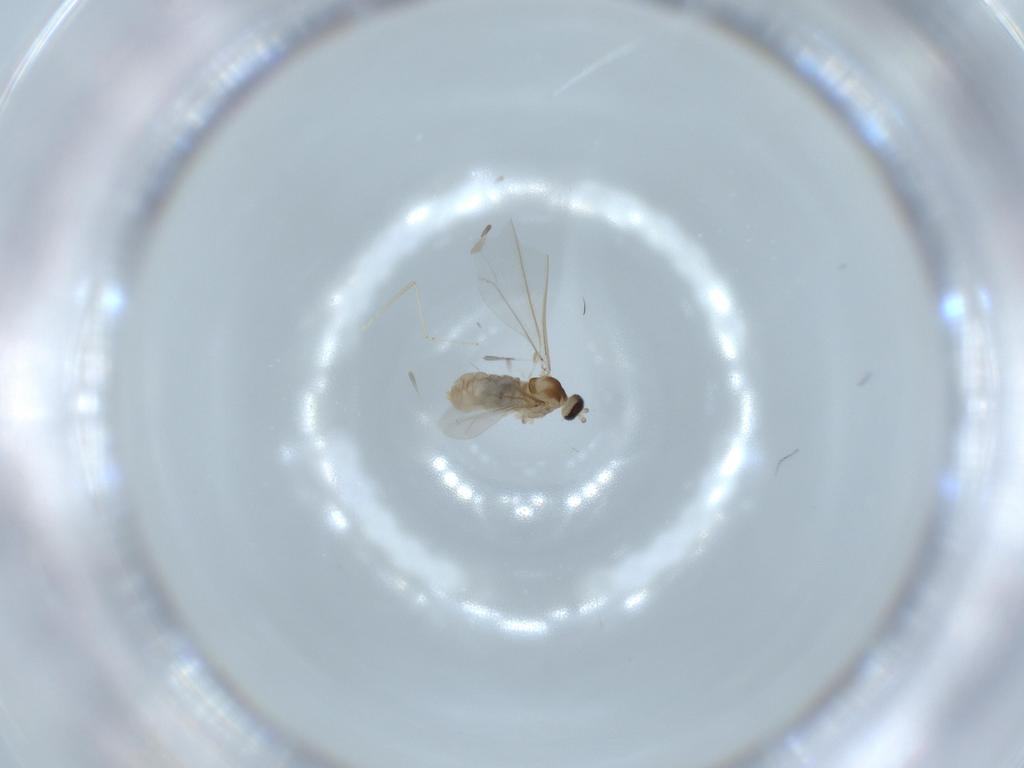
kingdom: Animalia
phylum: Arthropoda
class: Insecta
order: Diptera
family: Cecidomyiidae
